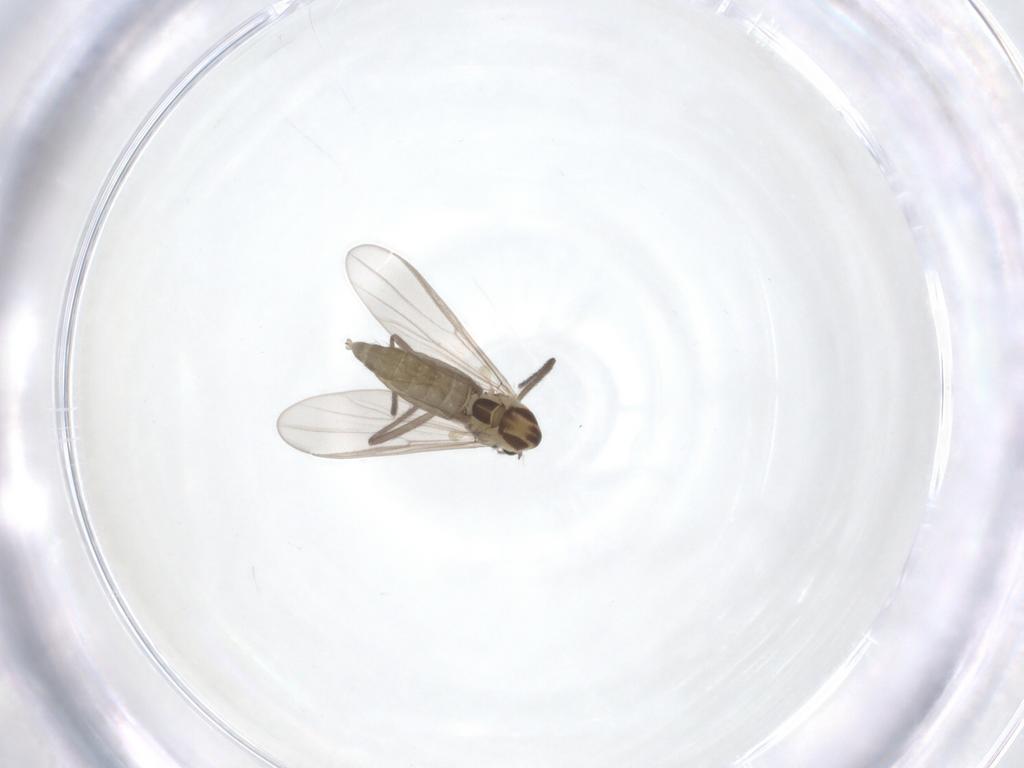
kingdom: Animalia
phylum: Arthropoda
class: Insecta
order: Diptera
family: Chironomidae
